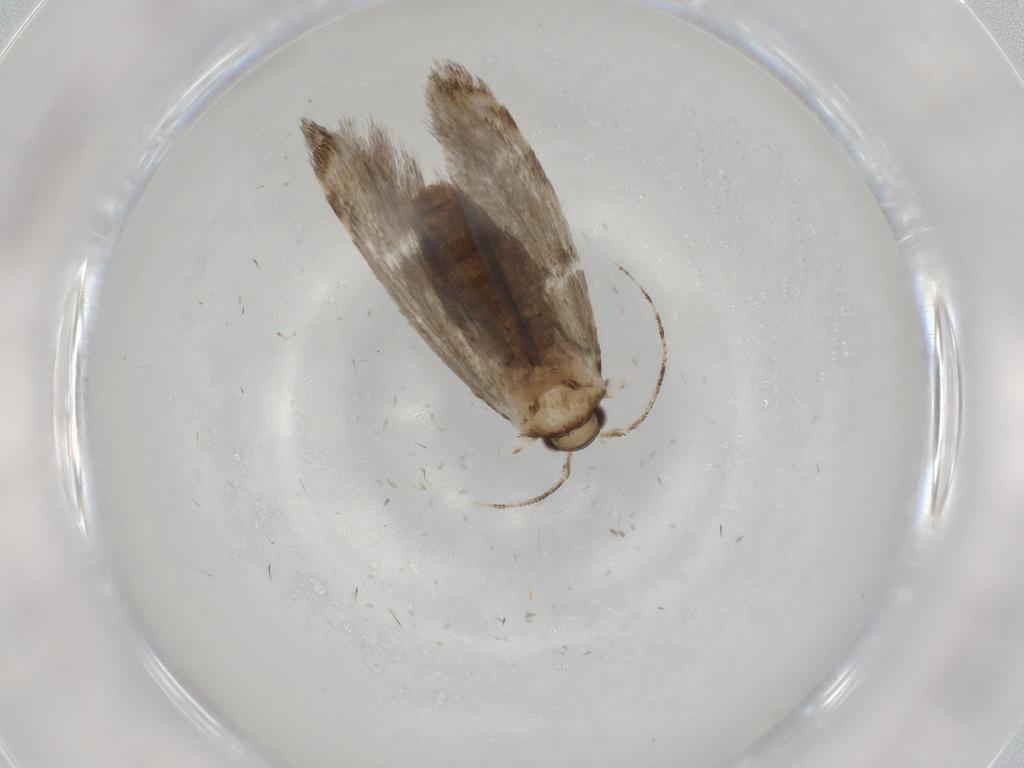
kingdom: Animalia
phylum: Arthropoda
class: Insecta
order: Lepidoptera
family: Tineidae
